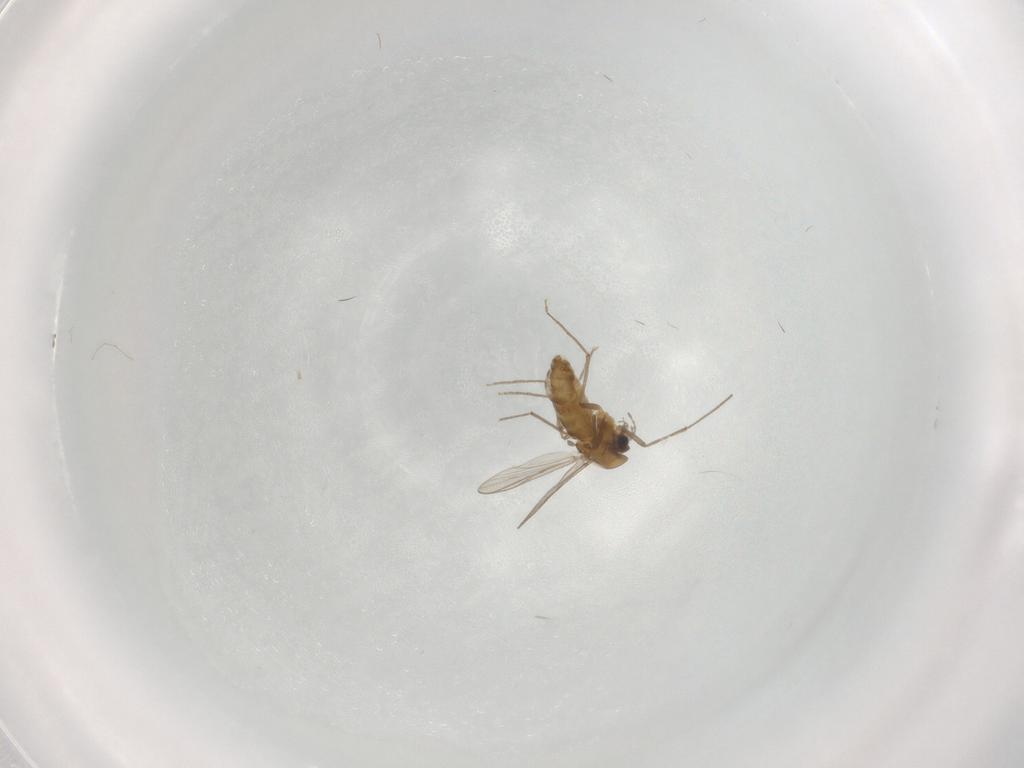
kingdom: Animalia
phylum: Arthropoda
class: Insecta
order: Diptera
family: Chironomidae
